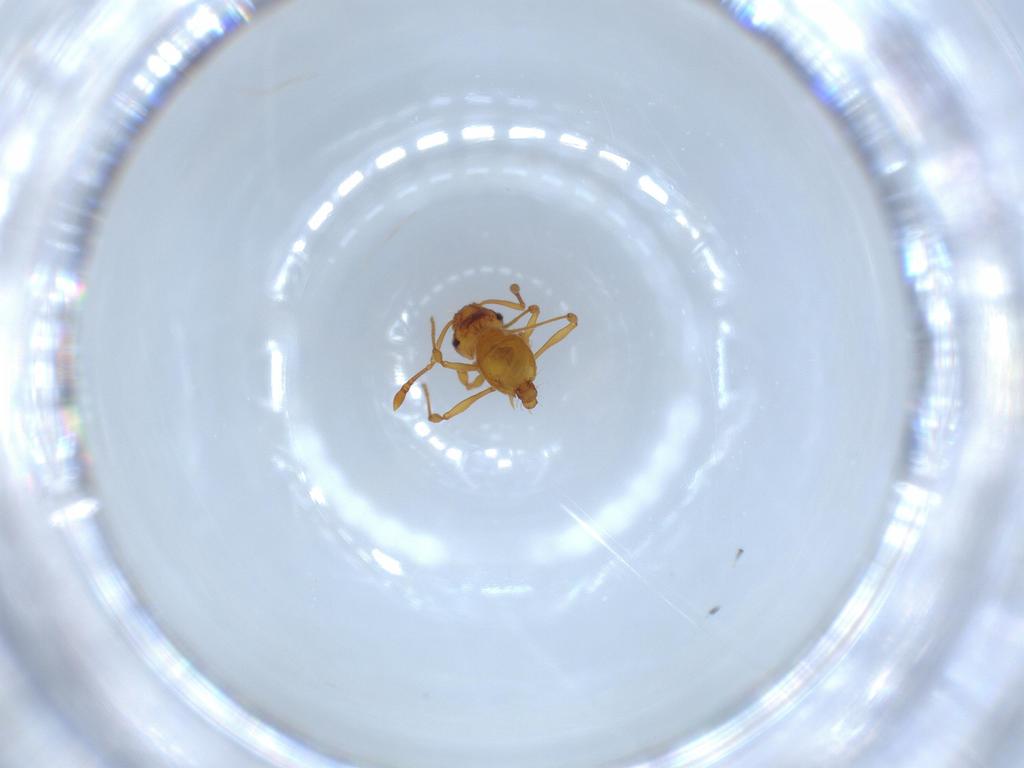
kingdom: Animalia
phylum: Arthropoda
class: Insecta
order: Hymenoptera
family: Formicidae
